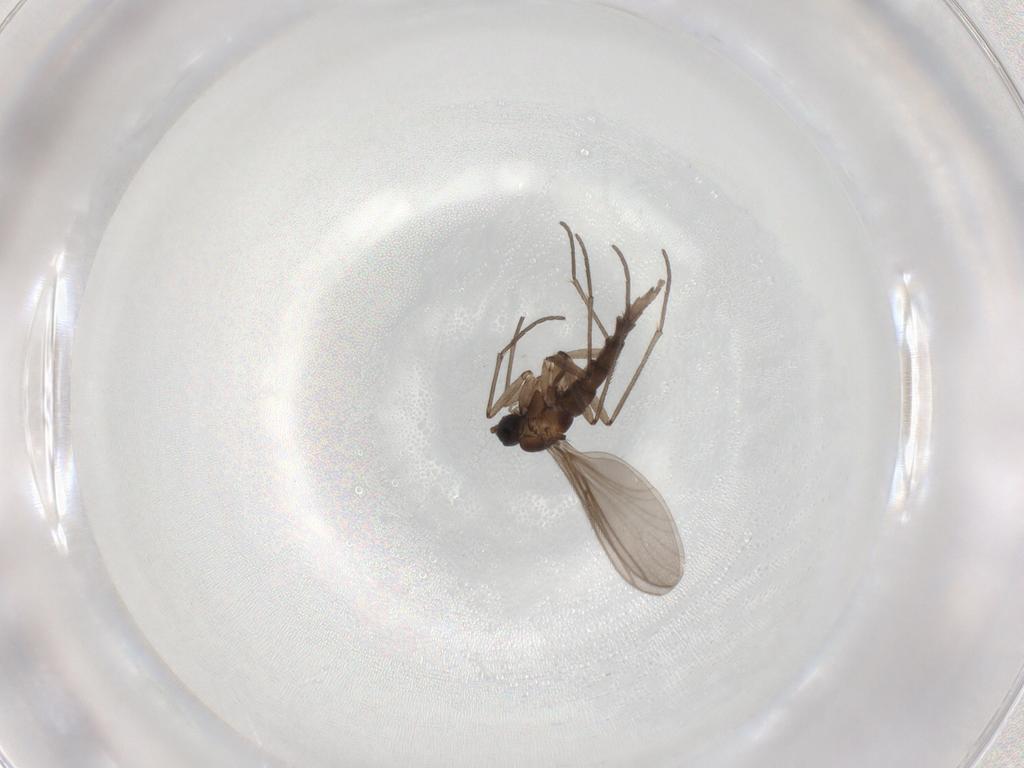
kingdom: Animalia
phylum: Arthropoda
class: Insecta
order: Diptera
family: Sciaridae
